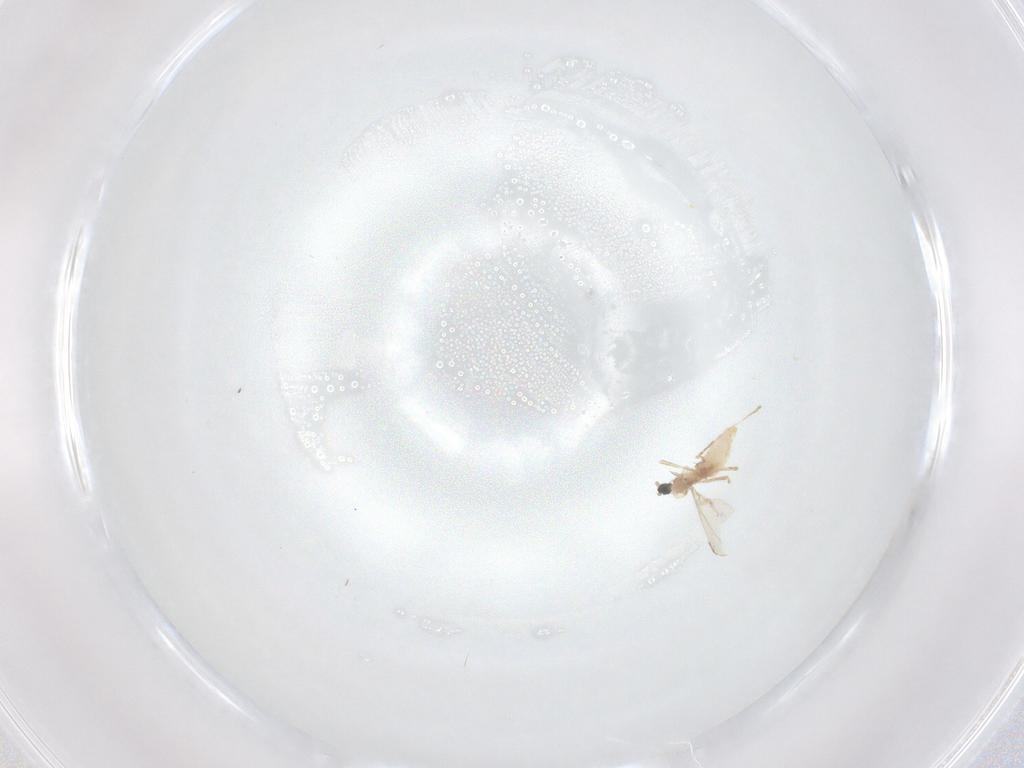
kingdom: Animalia
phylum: Arthropoda
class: Insecta
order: Diptera
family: Cecidomyiidae
